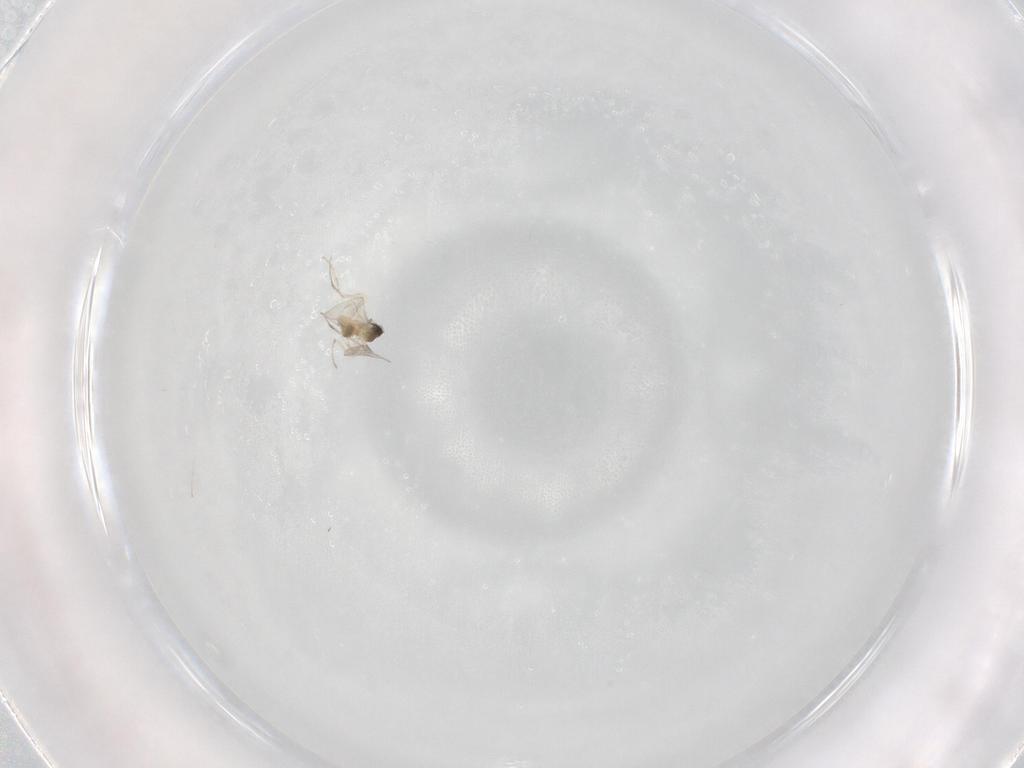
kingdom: Animalia
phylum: Arthropoda
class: Insecta
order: Diptera
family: Cecidomyiidae
